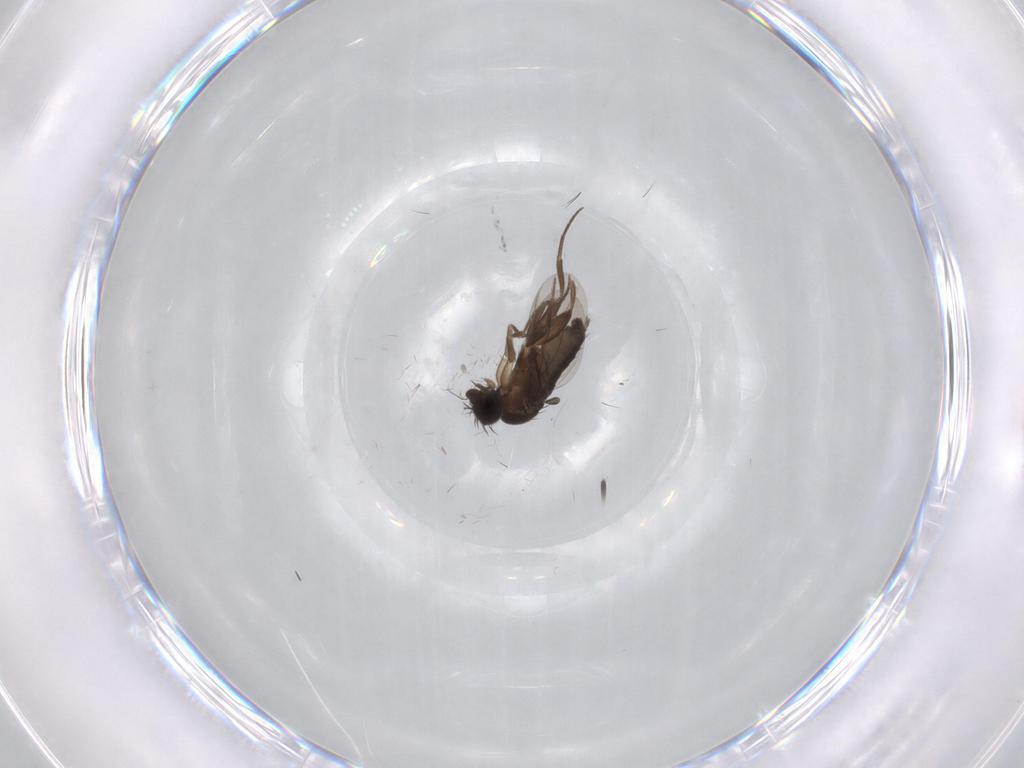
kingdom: Animalia
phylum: Arthropoda
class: Insecta
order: Diptera
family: Phoridae
